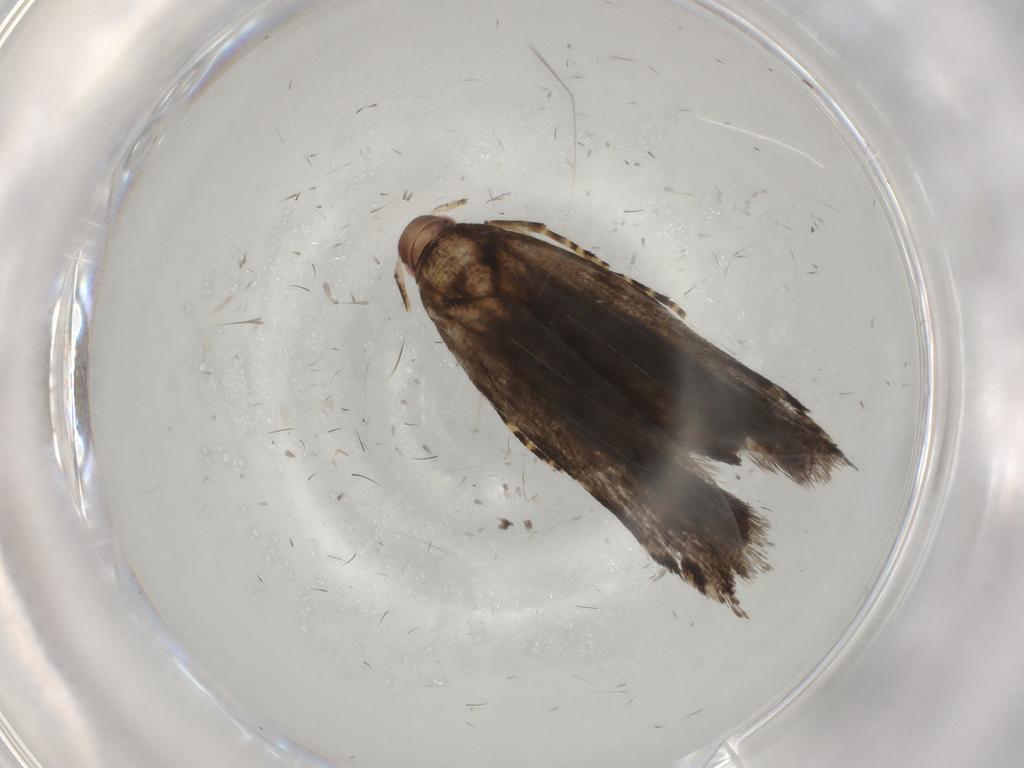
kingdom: Animalia
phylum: Arthropoda
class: Insecta
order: Lepidoptera
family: Crambidae
